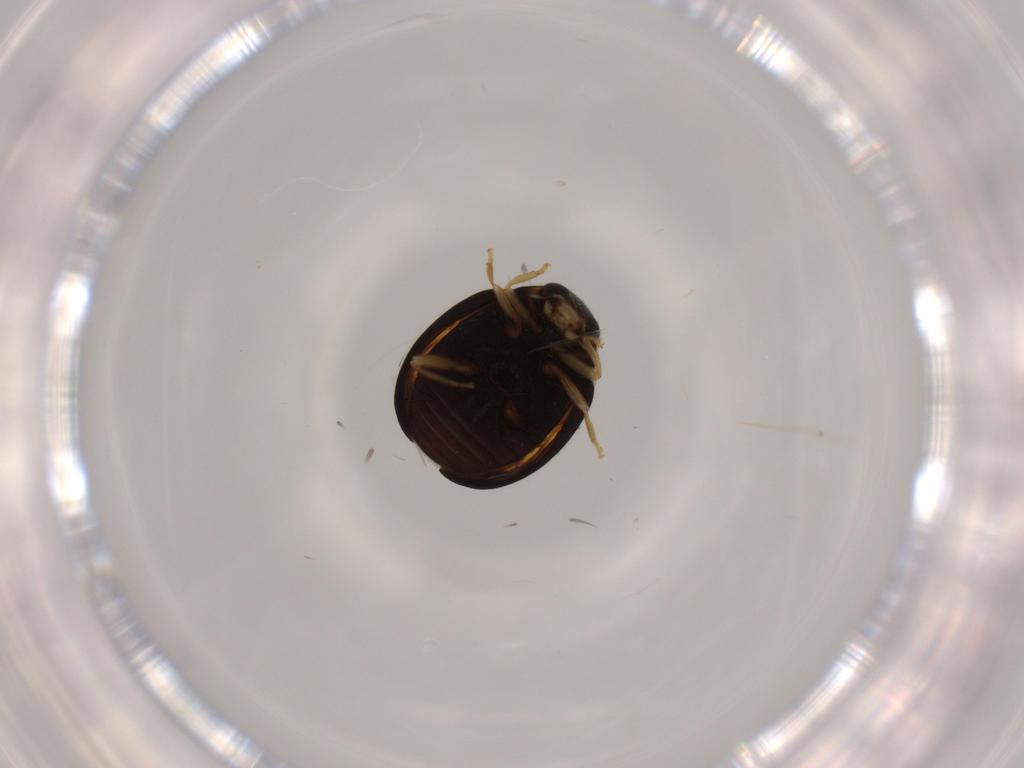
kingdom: Animalia
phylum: Arthropoda
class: Insecta
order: Coleoptera
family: Coccinellidae
